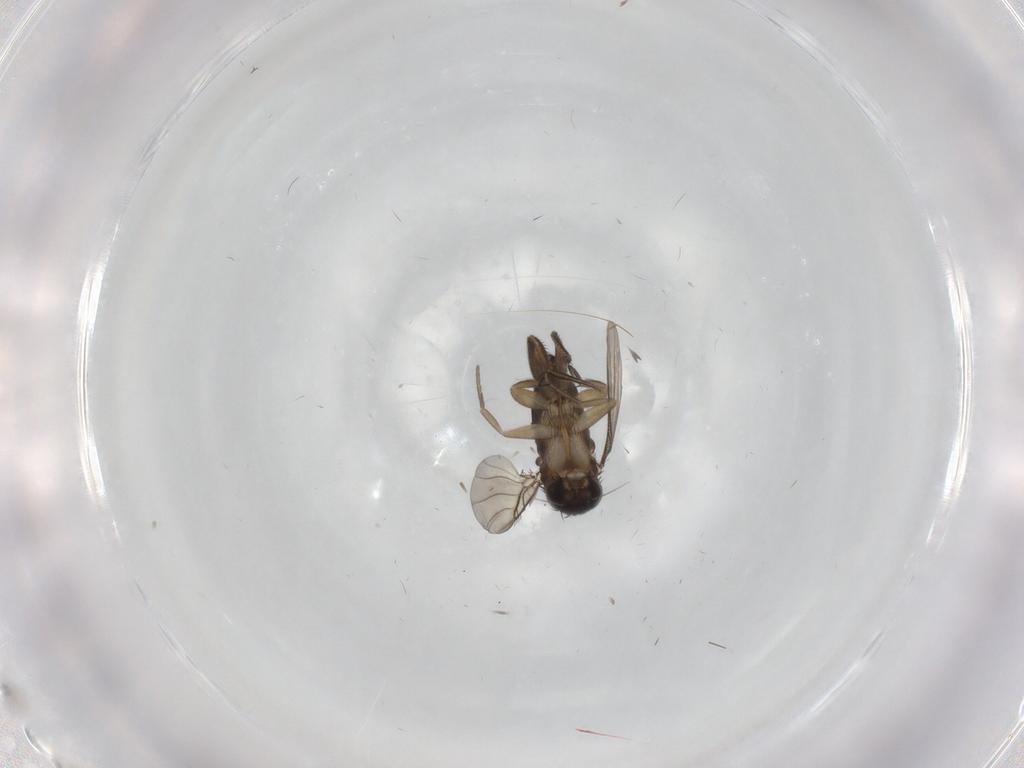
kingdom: Animalia
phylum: Arthropoda
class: Insecta
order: Diptera
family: Phoridae
